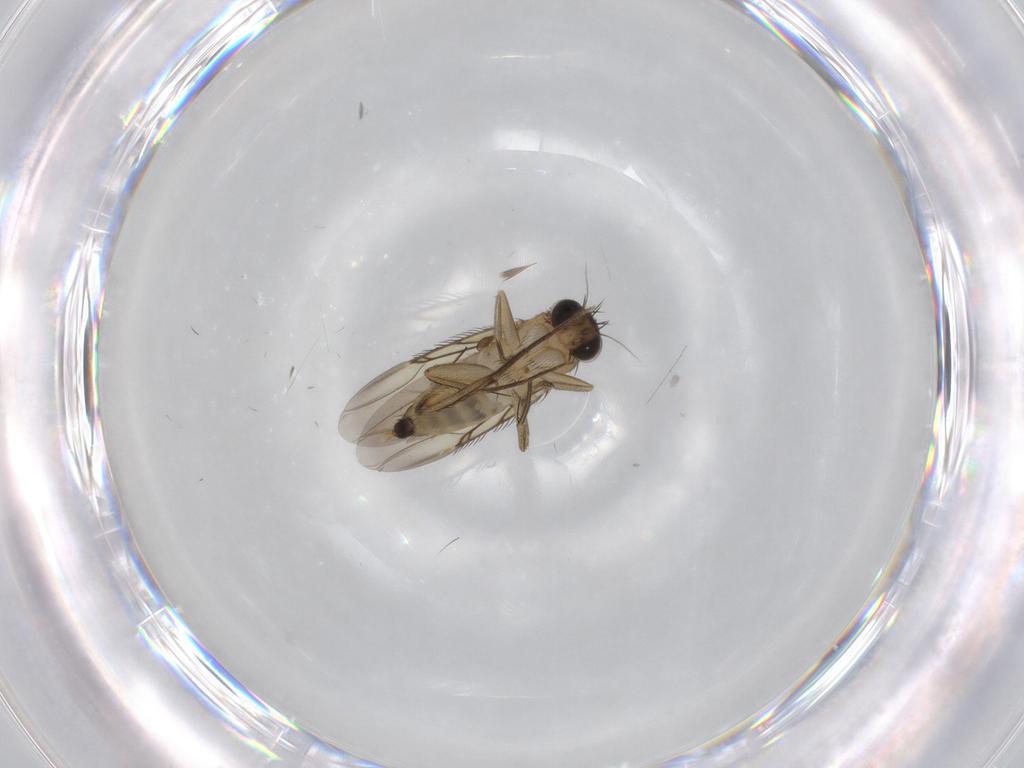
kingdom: Animalia
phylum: Arthropoda
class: Insecta
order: Diptera
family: Phoridae
